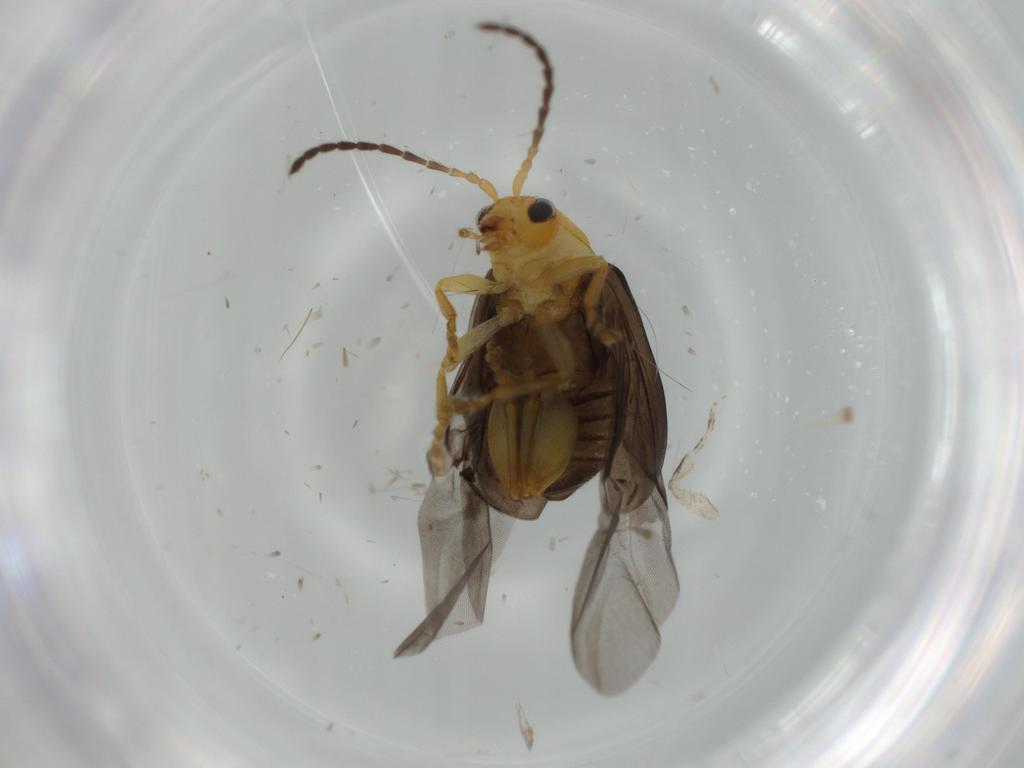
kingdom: Animalia
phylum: Arthropoda
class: Insecta
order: Coleoptera
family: Chrysomelidae
